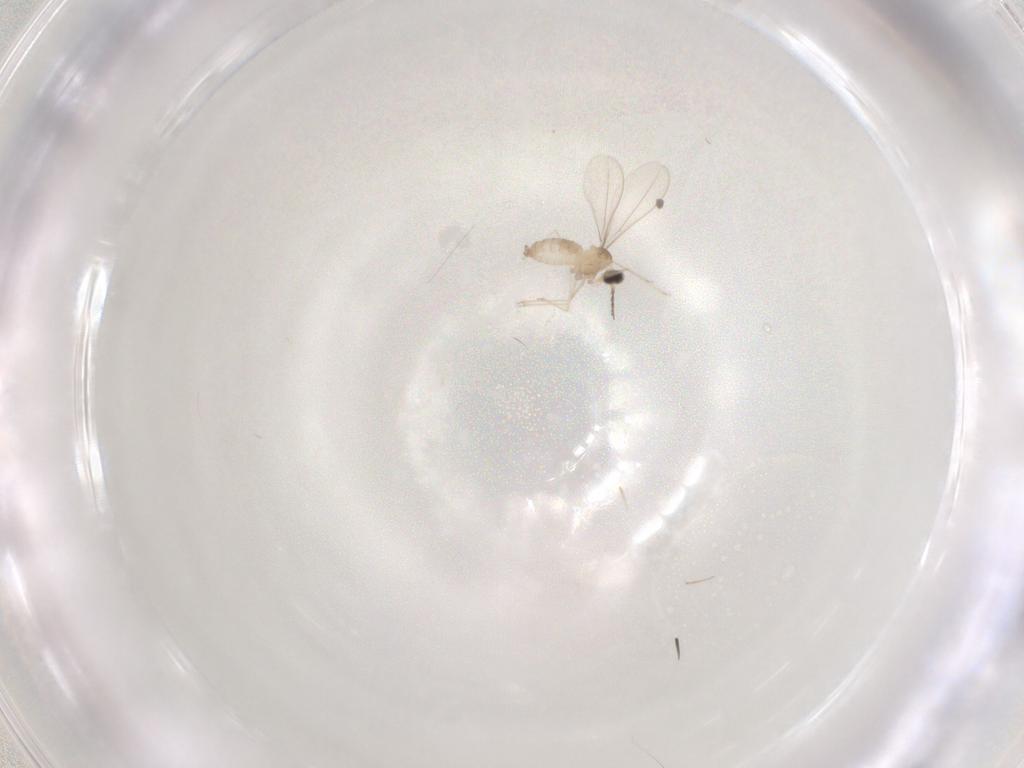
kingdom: Animalia
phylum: Arthropoda
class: Insecta
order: Diptera
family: Cecidomyiidae
